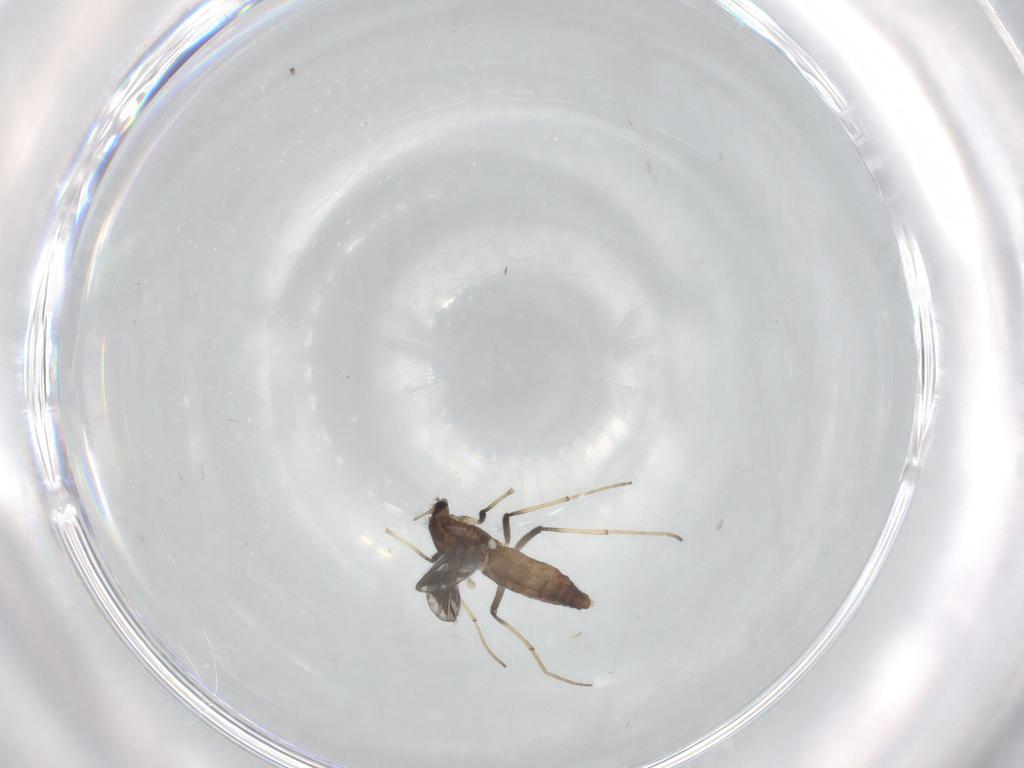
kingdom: Animalia
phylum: Arthropoda
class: Insecta
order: Diptera
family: Chironomidae
